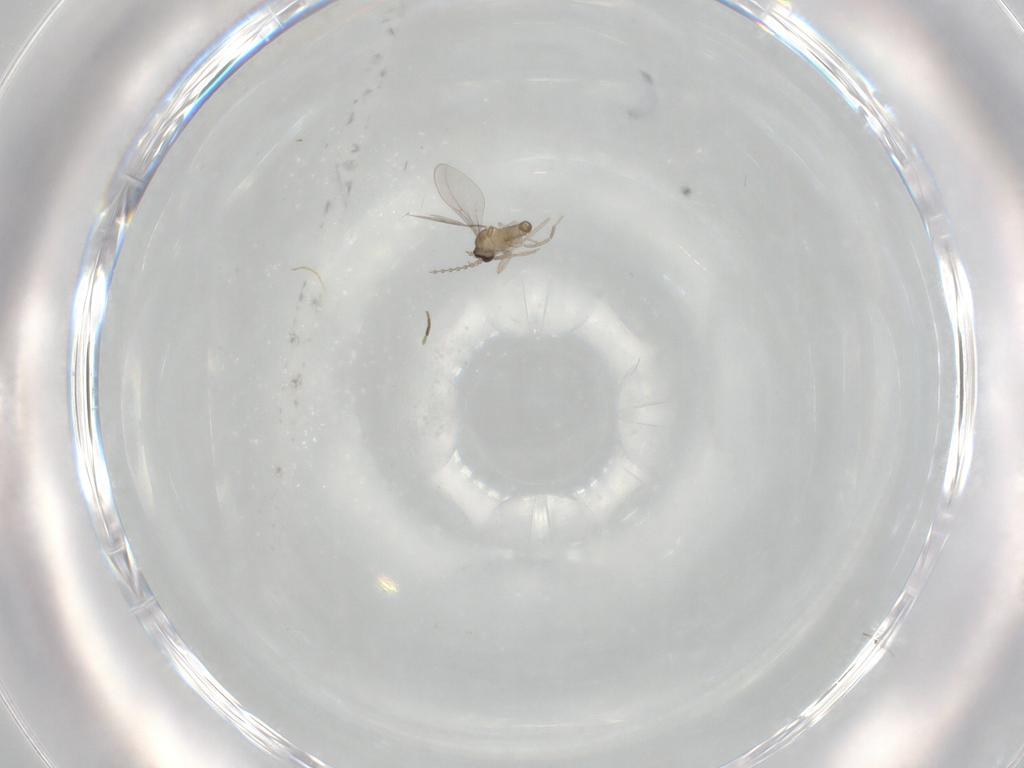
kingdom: Animalia
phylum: Arthropoda
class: Insecta
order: Diptera
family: Cecidomyiidae
